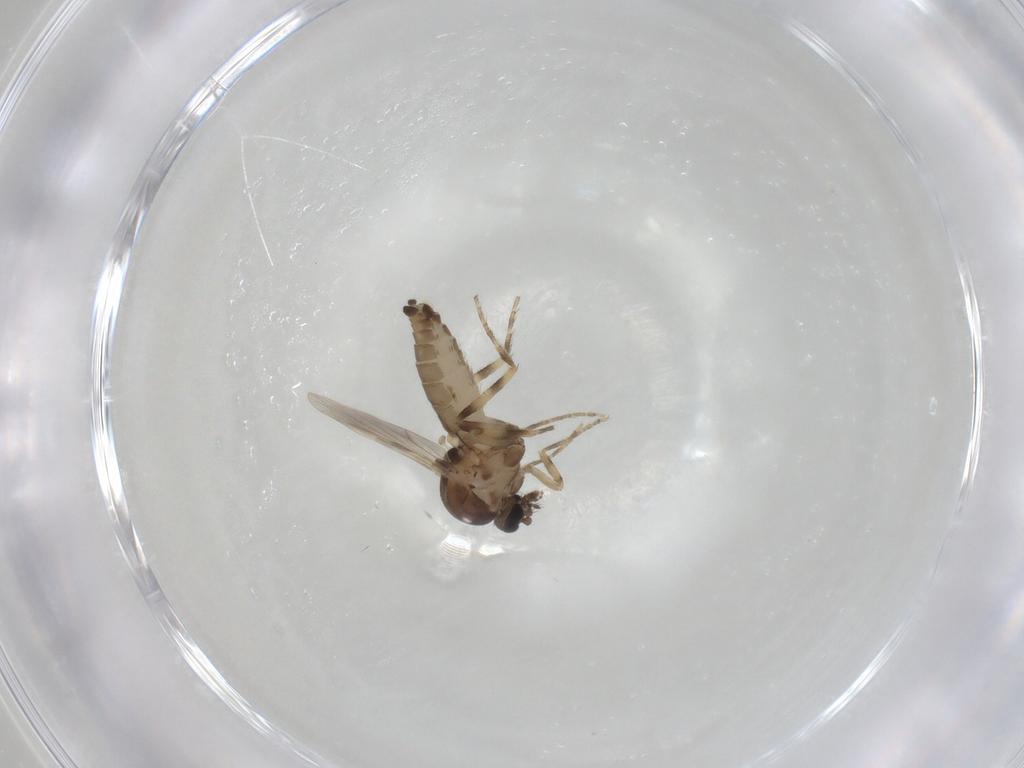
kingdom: Animalia
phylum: Arthropoda
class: Insecta
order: Diptera
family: Ceratopogonidae
